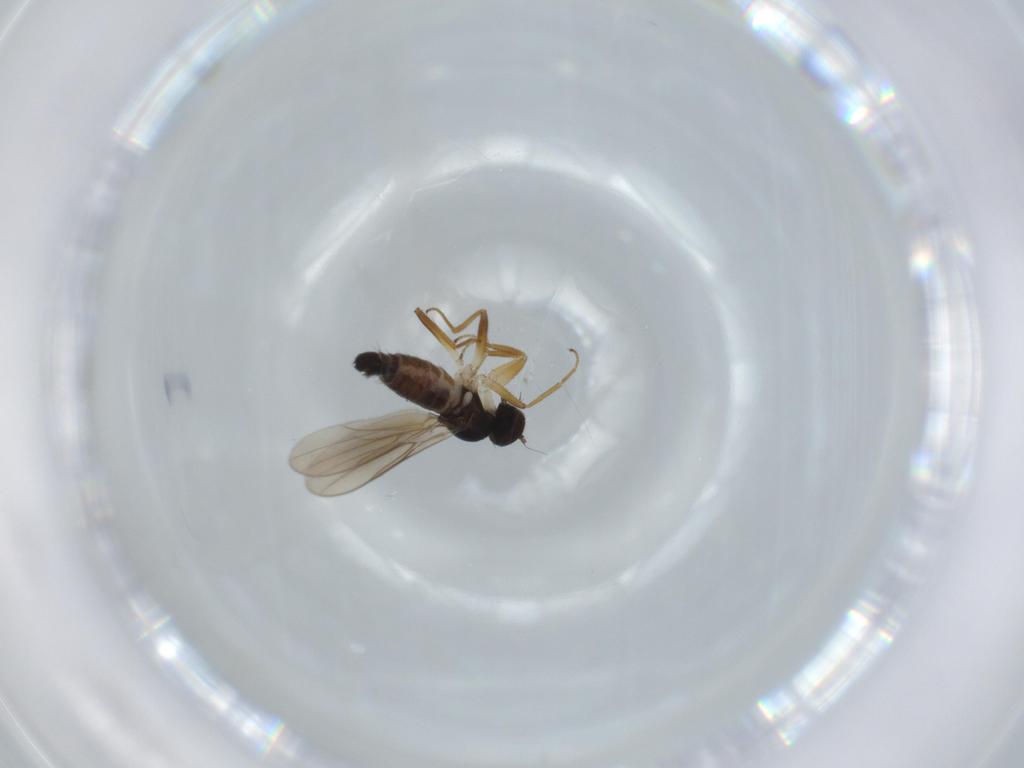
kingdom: Animalia
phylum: Arthropoda
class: Insecta
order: Diptera
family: Hybotidae
